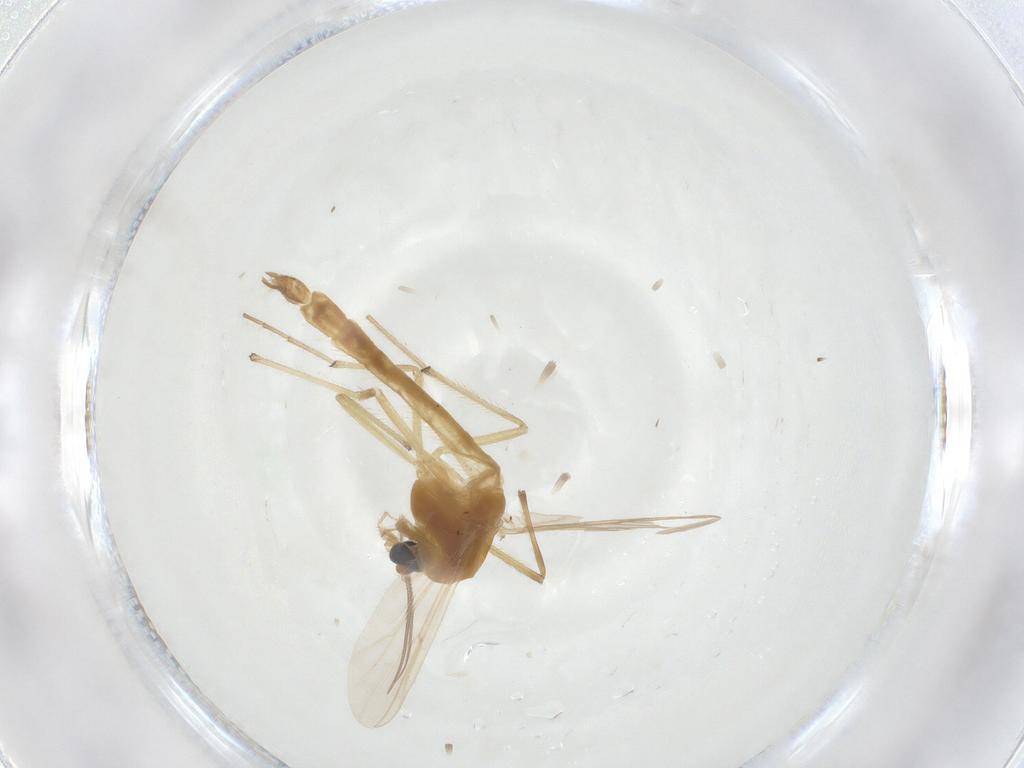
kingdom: Animalia
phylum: Arthropoda
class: Insecta
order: Diptera
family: Chironomidae
